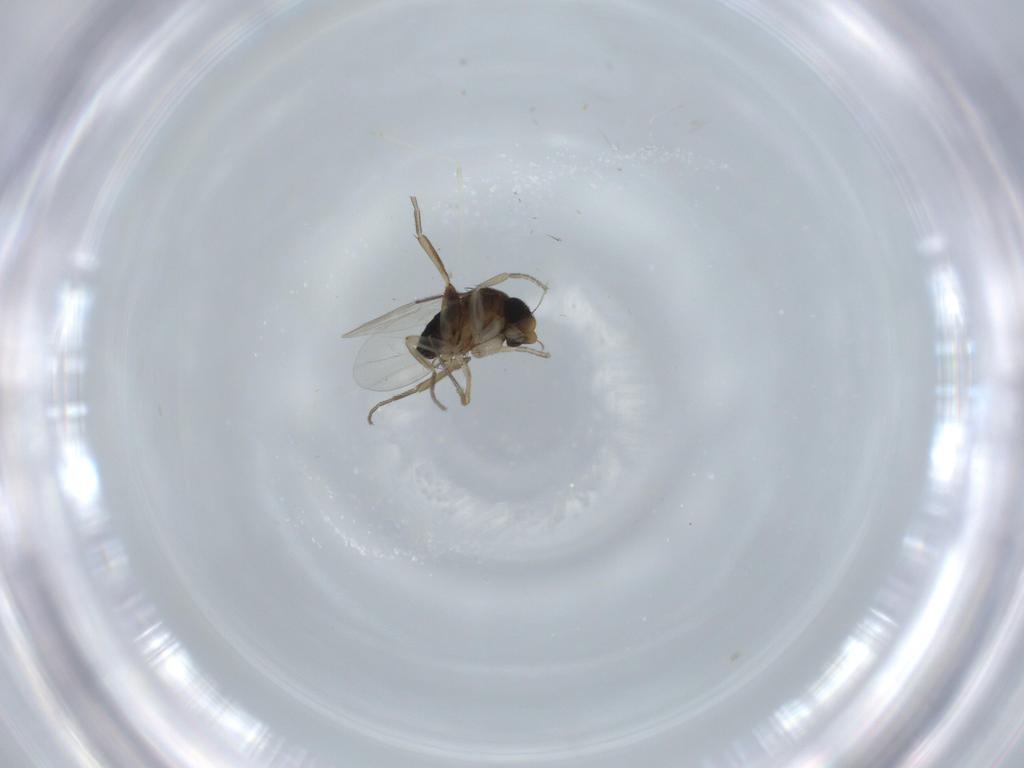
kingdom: Animalia
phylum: Arthropoda
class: Insecta
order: Diptera
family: Phoridae
